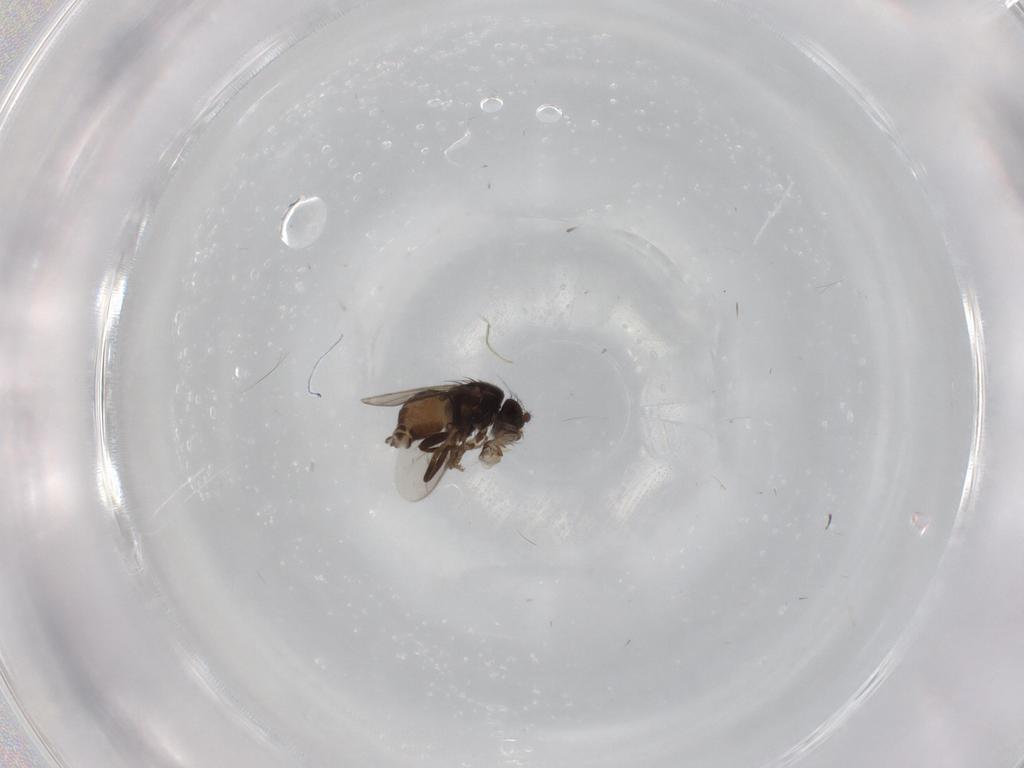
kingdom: Animalia
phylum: Arthropoda
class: Insecta
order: Diptera
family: Sphaeroceridae
